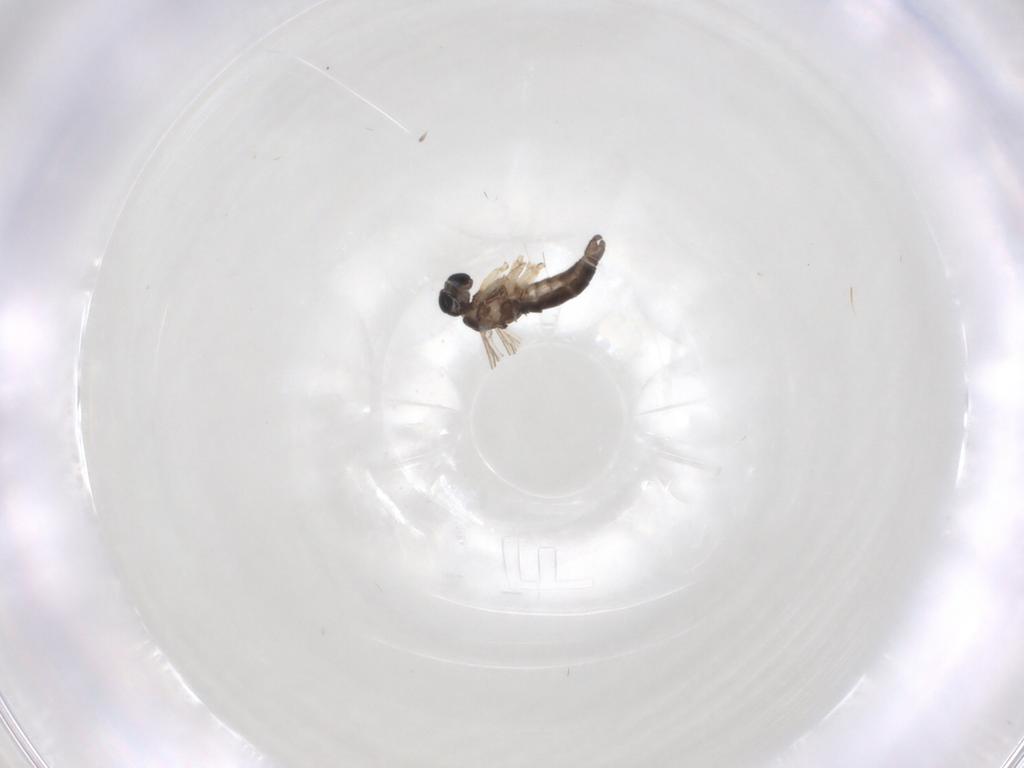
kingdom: Animalia
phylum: Arthropoda
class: Insecta
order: Diptera
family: Sciaridae
